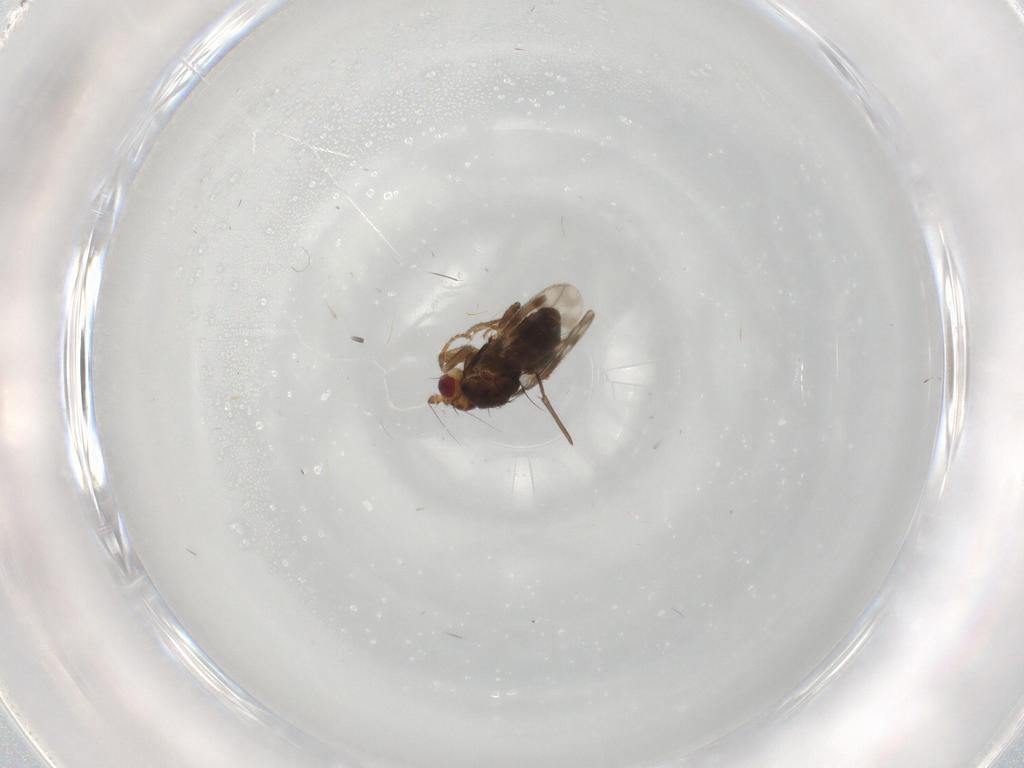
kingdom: Animalia
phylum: Arthropoda
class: Insecta
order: Diptera
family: Sphaeroceridae
